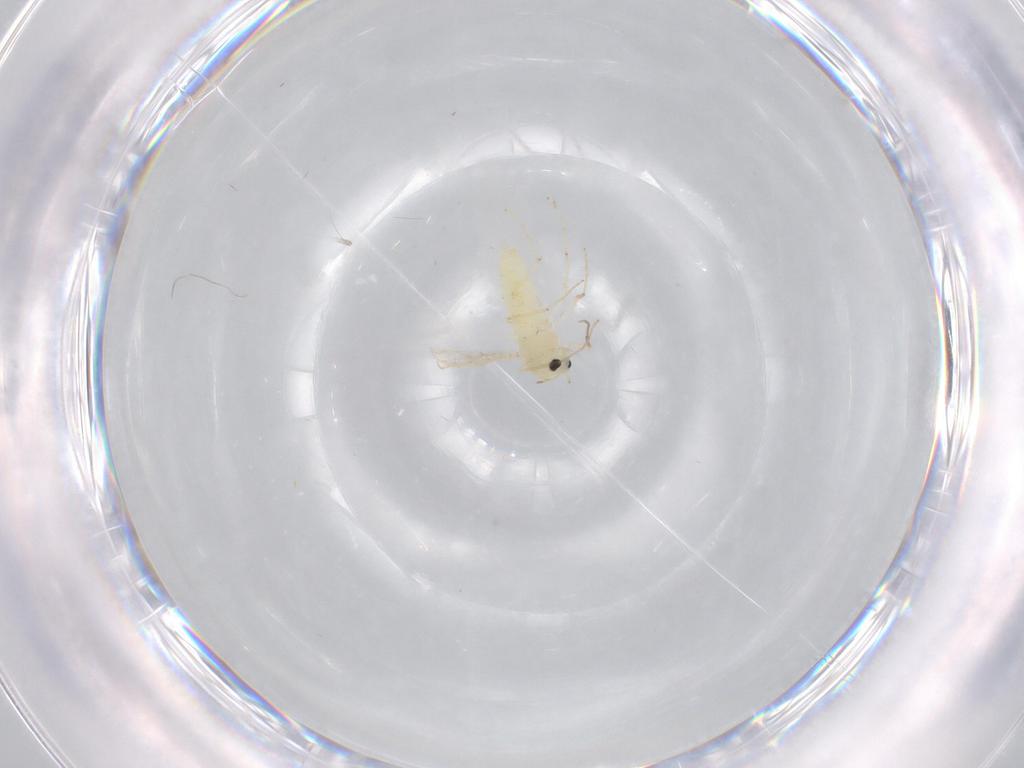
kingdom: Animalia
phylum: Arthropoda
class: Insecta
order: Diptera
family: Chironomidae
